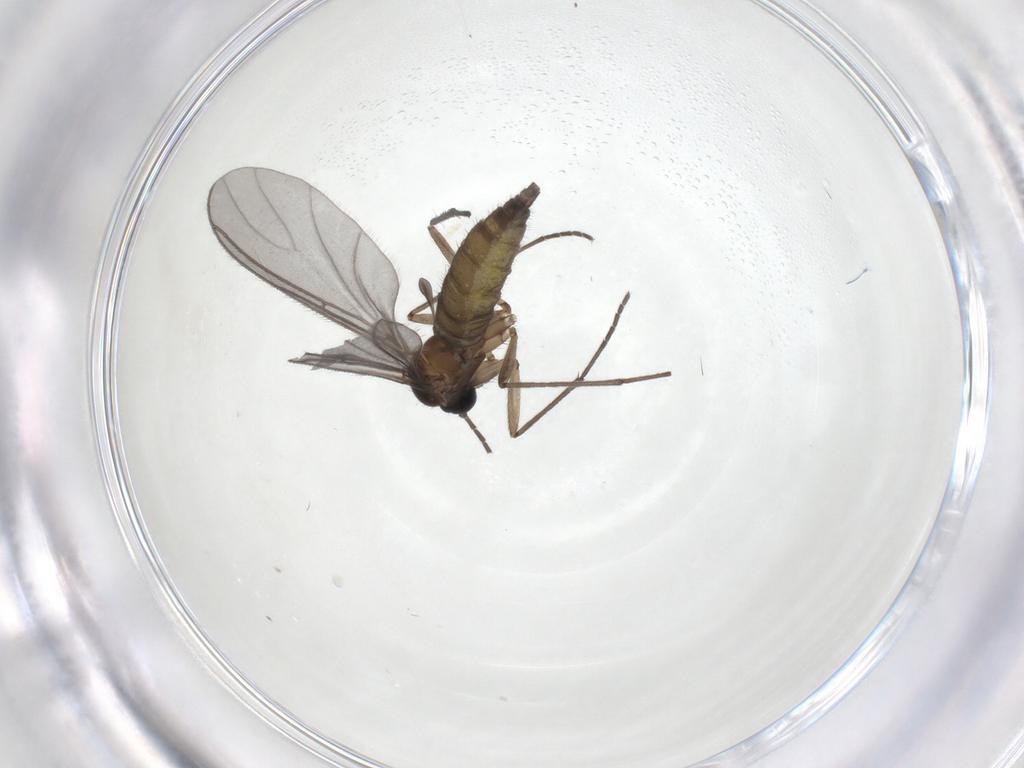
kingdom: Animalia
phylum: Arthropoda
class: Insecta
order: Diptera
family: Sciaridae
